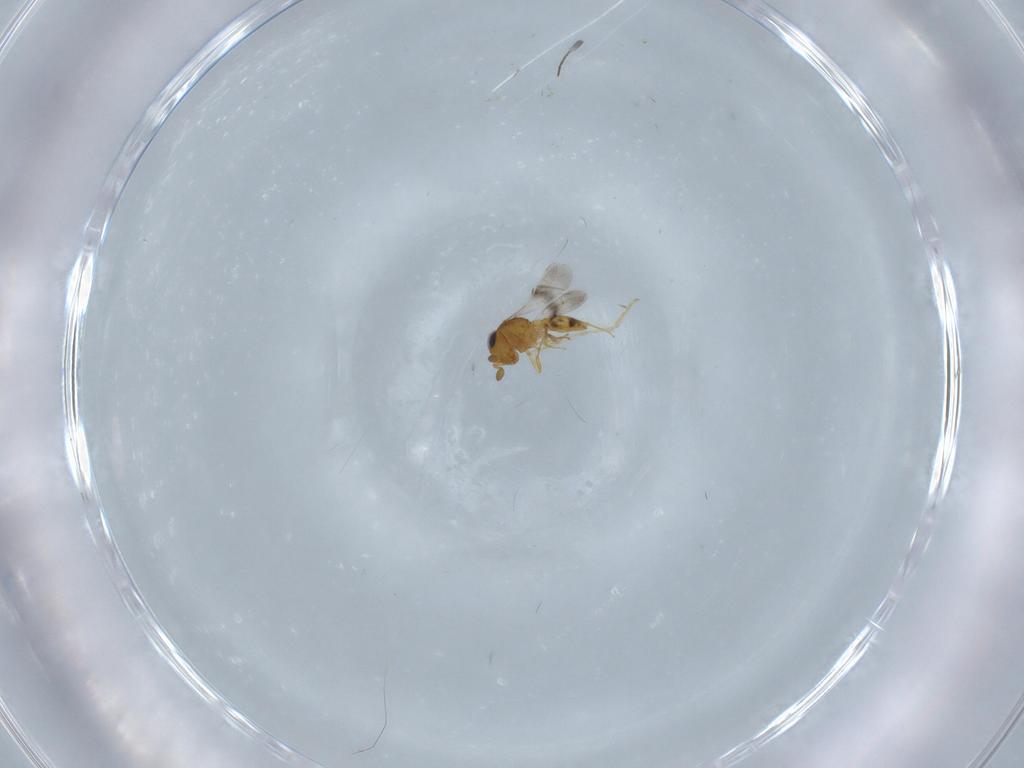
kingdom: Animalia
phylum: Arthropoda
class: Insecta
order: Hymenoptera
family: Scelionidae
